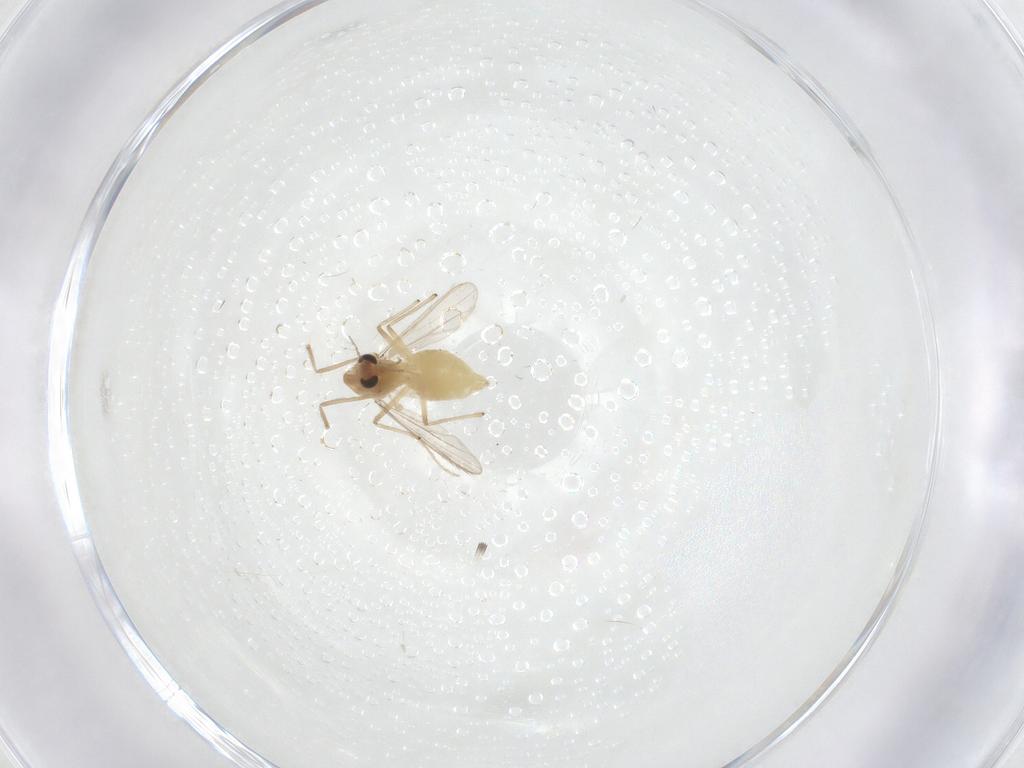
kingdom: Animalia
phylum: Arthropoda
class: Insecta
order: Diptera
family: Chironomidae
